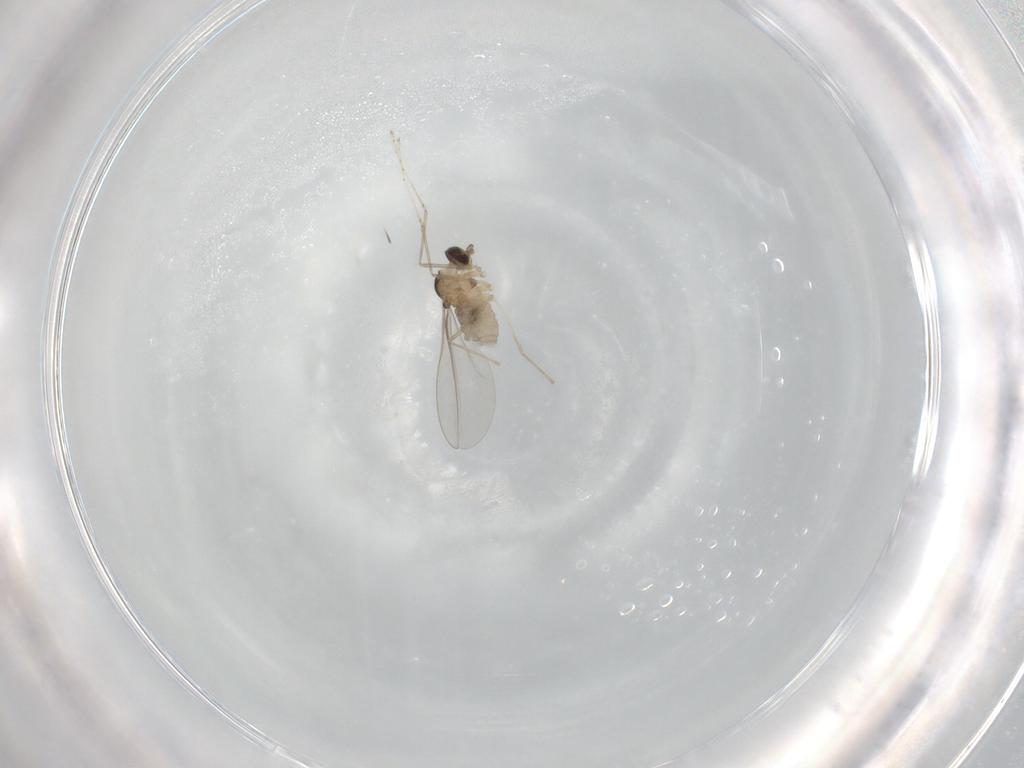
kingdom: Animalia
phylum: Arthropoda
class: Insecta
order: Diptera
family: Cecidomyiidae
